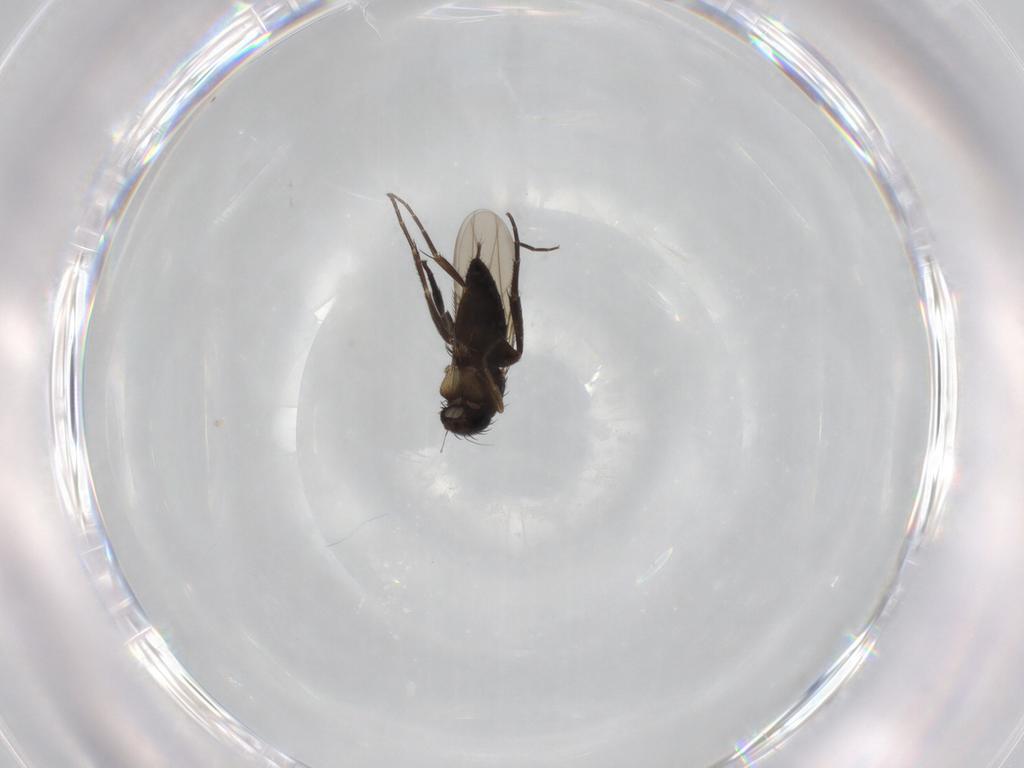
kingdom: Animalia
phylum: Arthropoda
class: Insecta
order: Diptera
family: Phoridae
